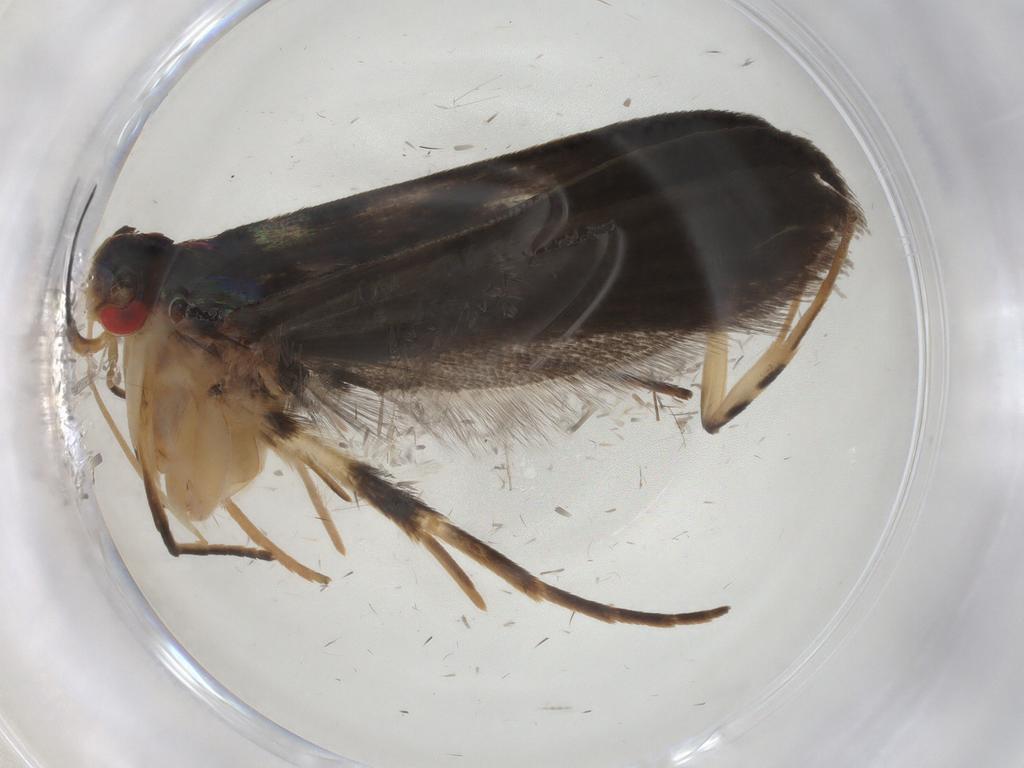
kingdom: Animalia
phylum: Arthropoda
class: Insecta
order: Lepidoptera
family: Crambidae
